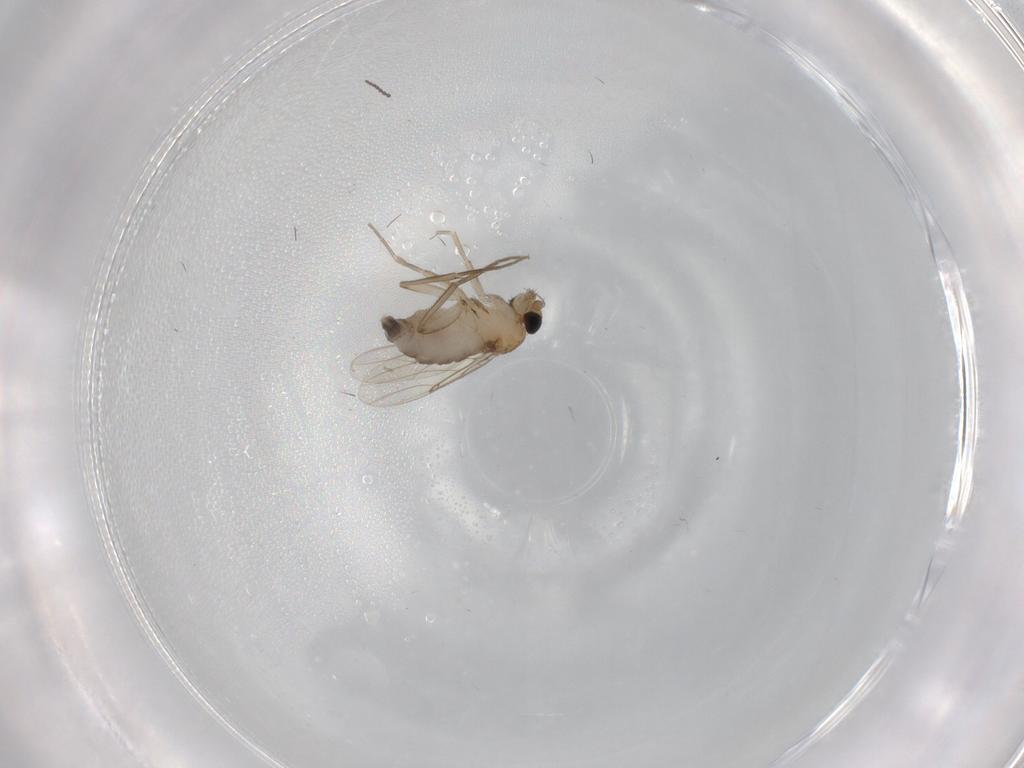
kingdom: Animalia
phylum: Arthropoda
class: Insecta
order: Diptera
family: Phoridae
